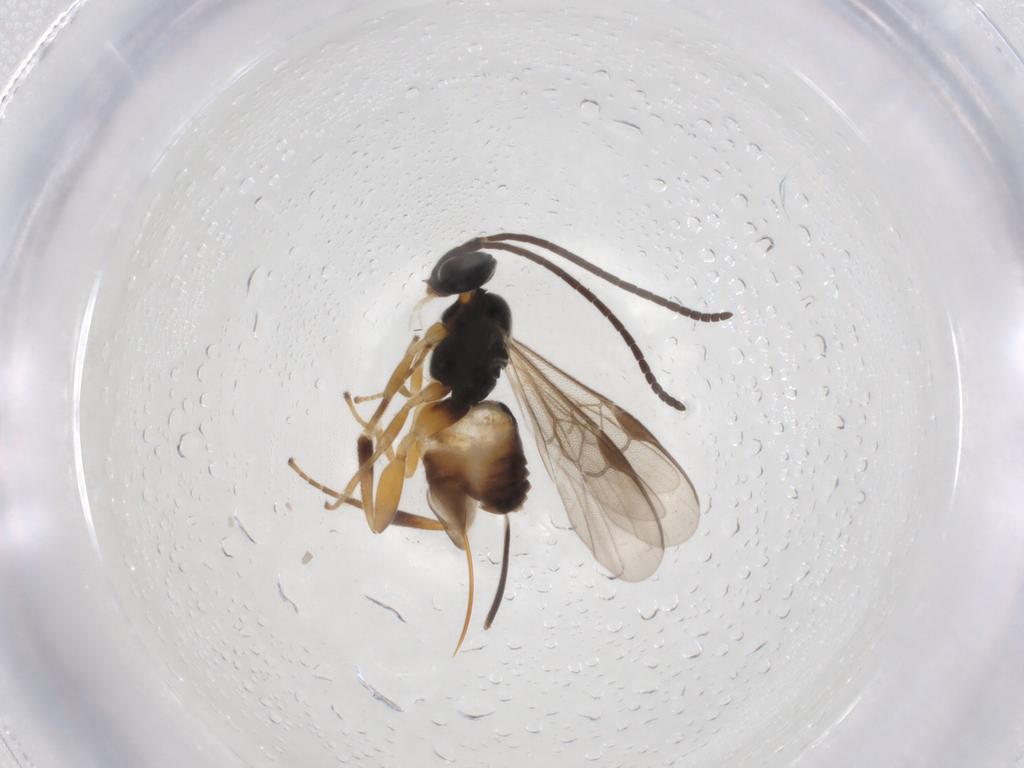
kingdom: Animalia
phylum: Arthropoda
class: Insecta
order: Hymenoptera
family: Braconidae
